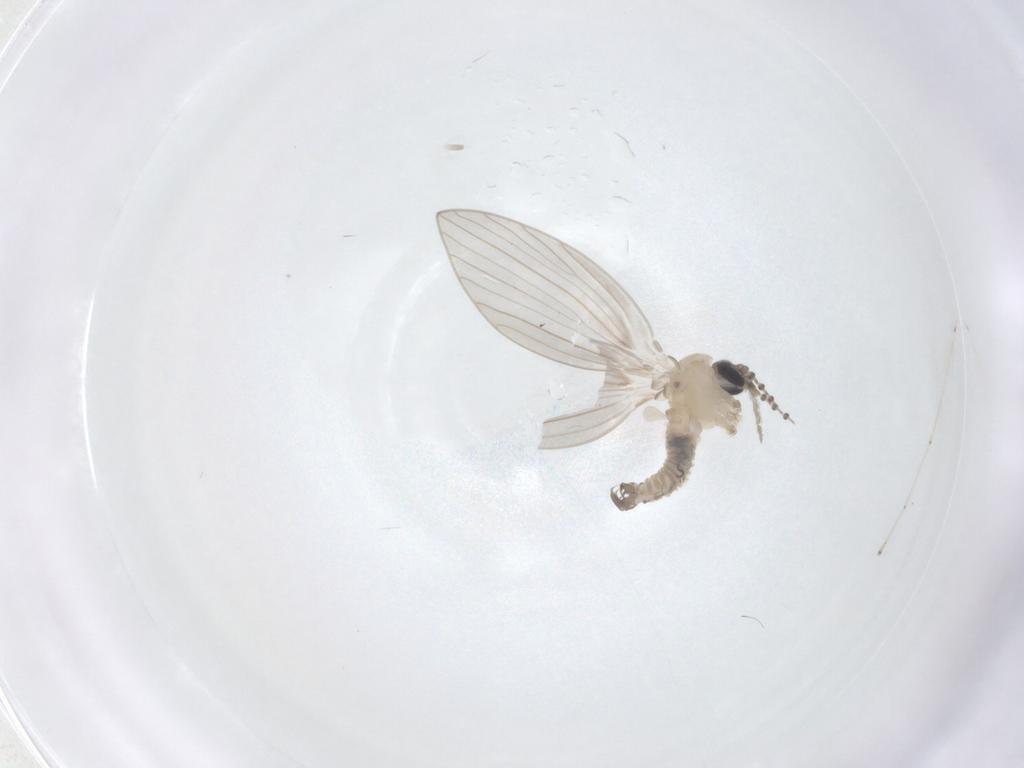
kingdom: Animalia
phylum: Arthropoda
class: Insecta
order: Diptera
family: Psychodidae
